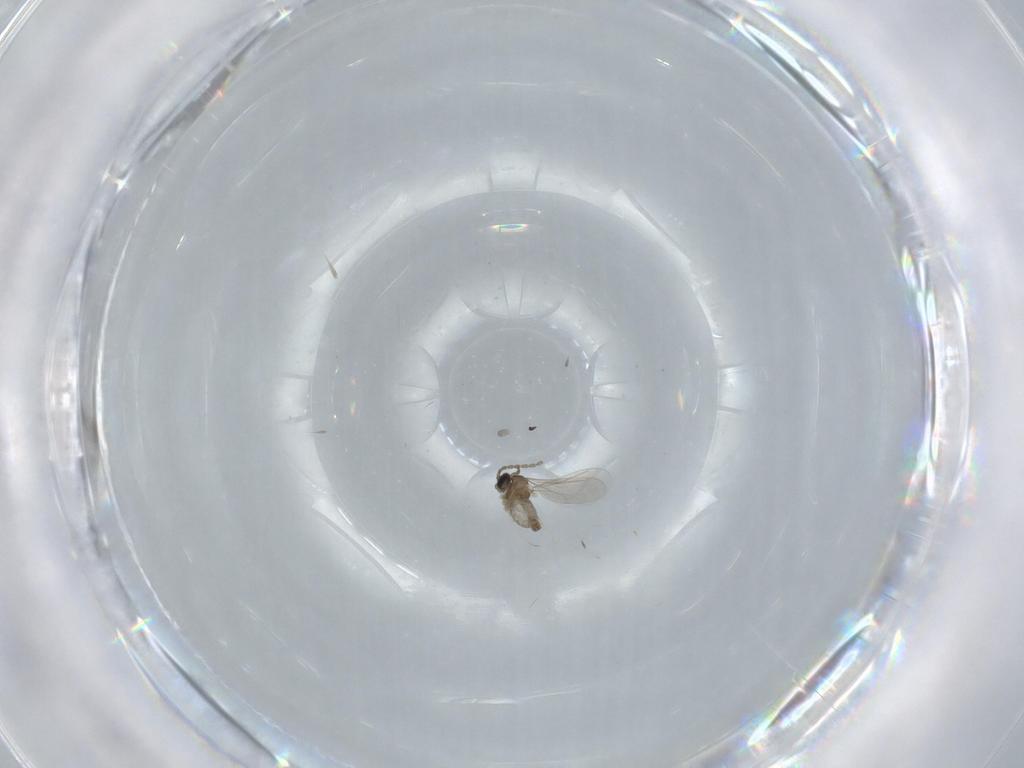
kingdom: Animalia
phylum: Arthropoda
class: Insecta
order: Diptera
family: Cecidomyiidae
